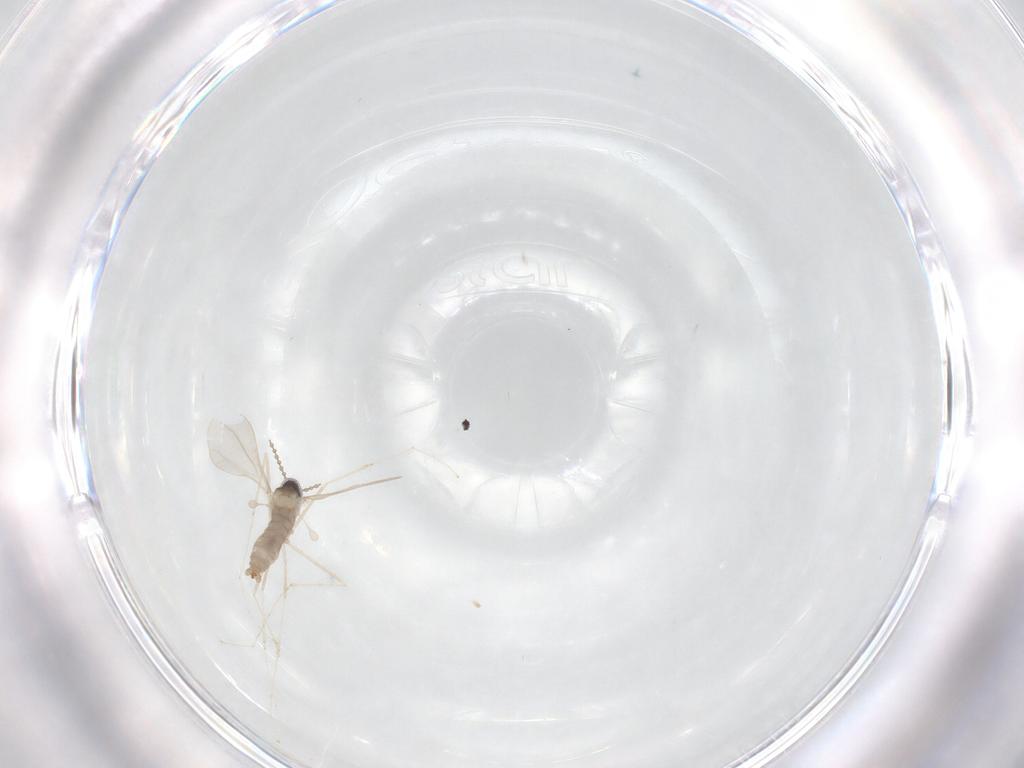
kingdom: Animalia
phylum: Arthropoda
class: Insecta
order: Diptera
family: Cecidomyiidae
